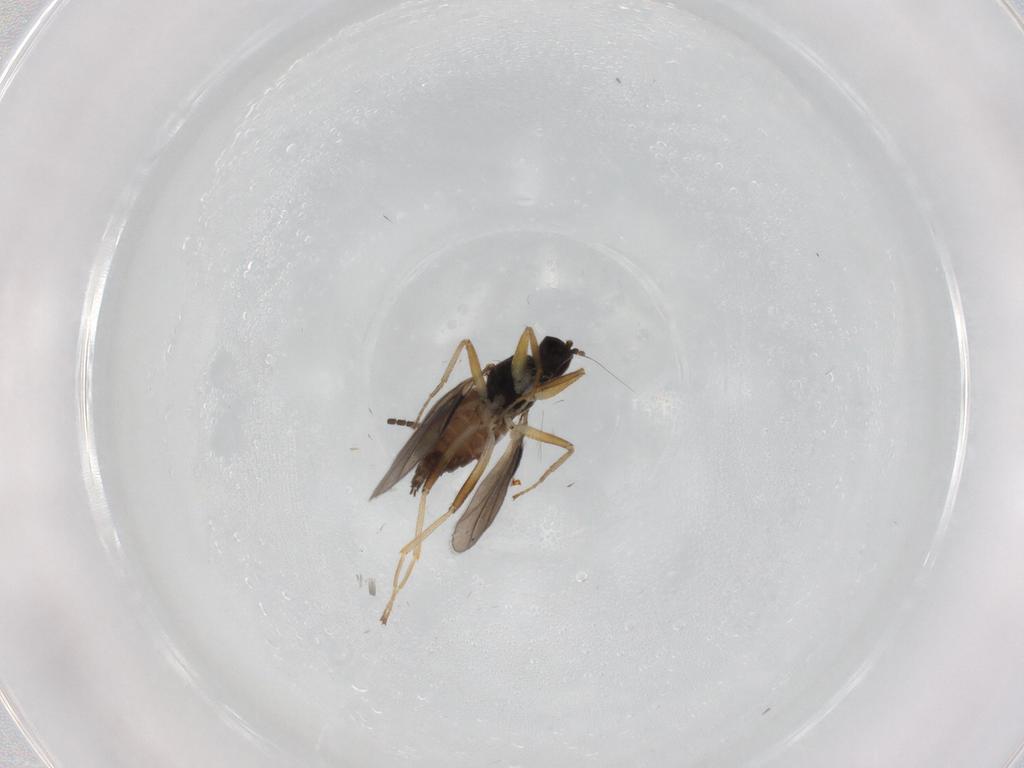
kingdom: Animalia
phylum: Arthropoda
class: Insecta
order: Diptera
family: Hybotidae
